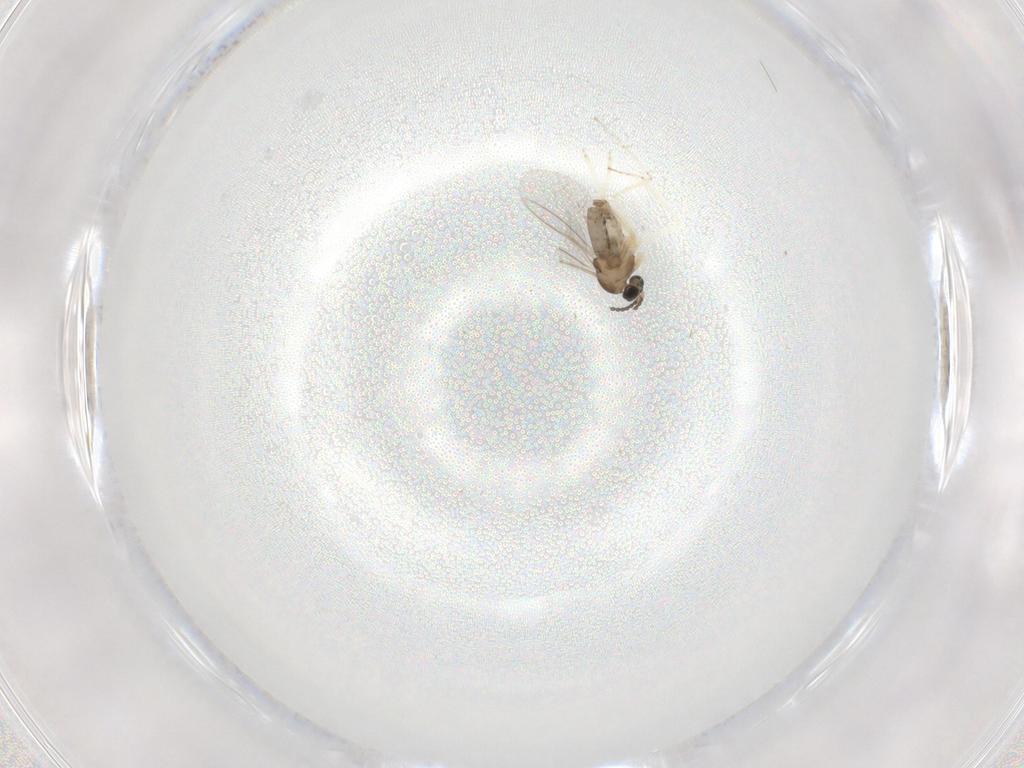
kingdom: Animalia
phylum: Arthropoda
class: Insecta
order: Diptera
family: Cecidomyiidae
